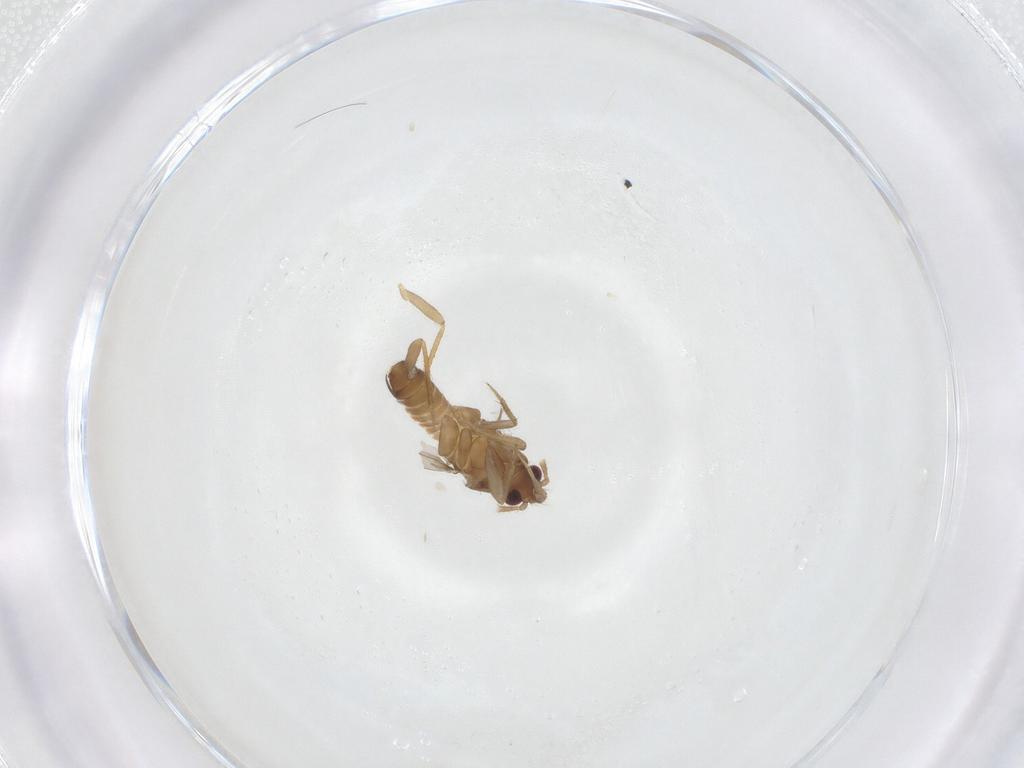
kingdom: Animalia
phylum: Arthropoda
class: Insecta
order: Hemiptera
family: Ceratocombidae
